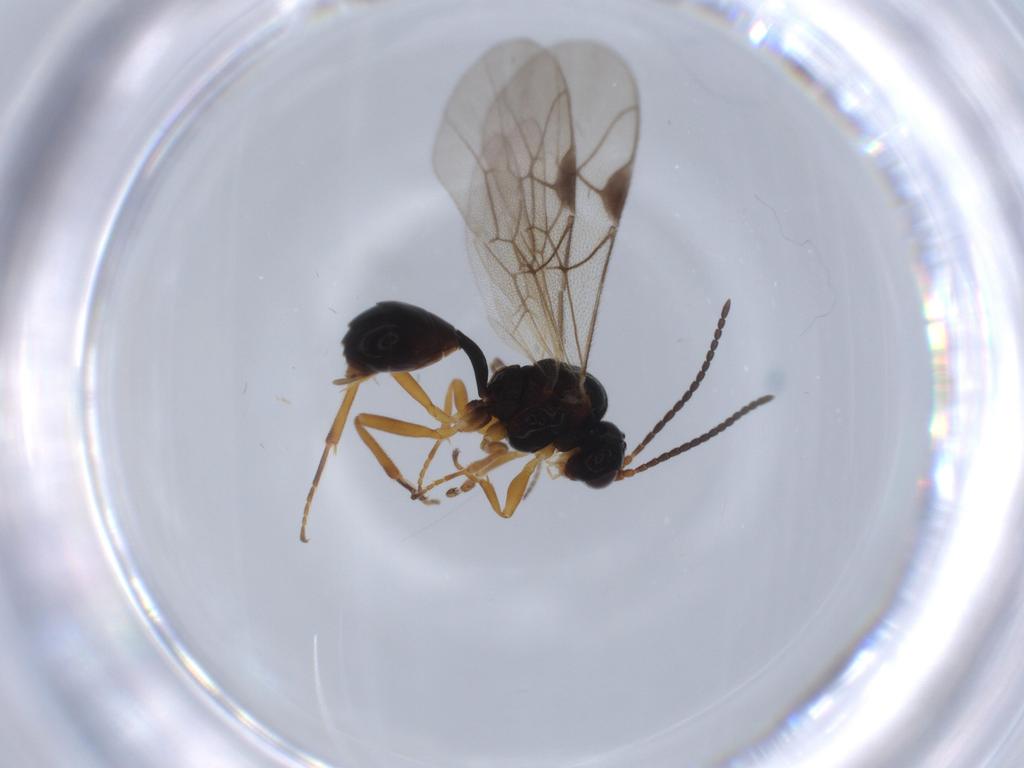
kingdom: Animalia
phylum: Arthropoda
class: Insecta
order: Hymenoptera
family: Ichneumonidae
